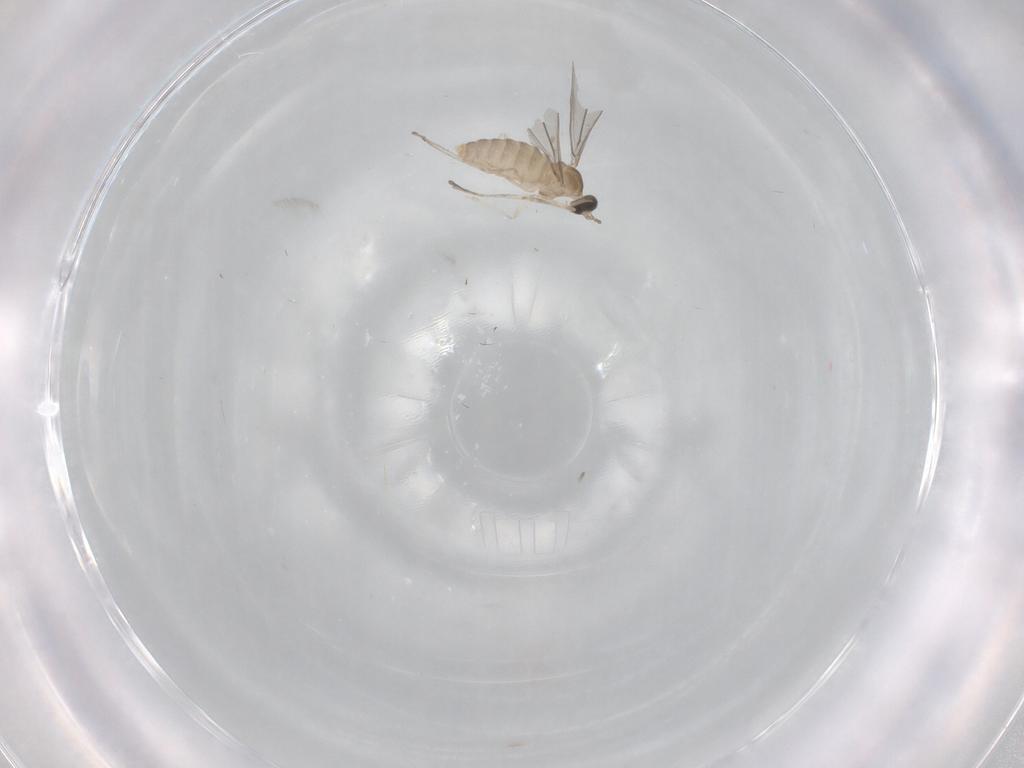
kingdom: Animalia
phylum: Arthropoda
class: Insecta
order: Diptera
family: Cecidomyiidae
